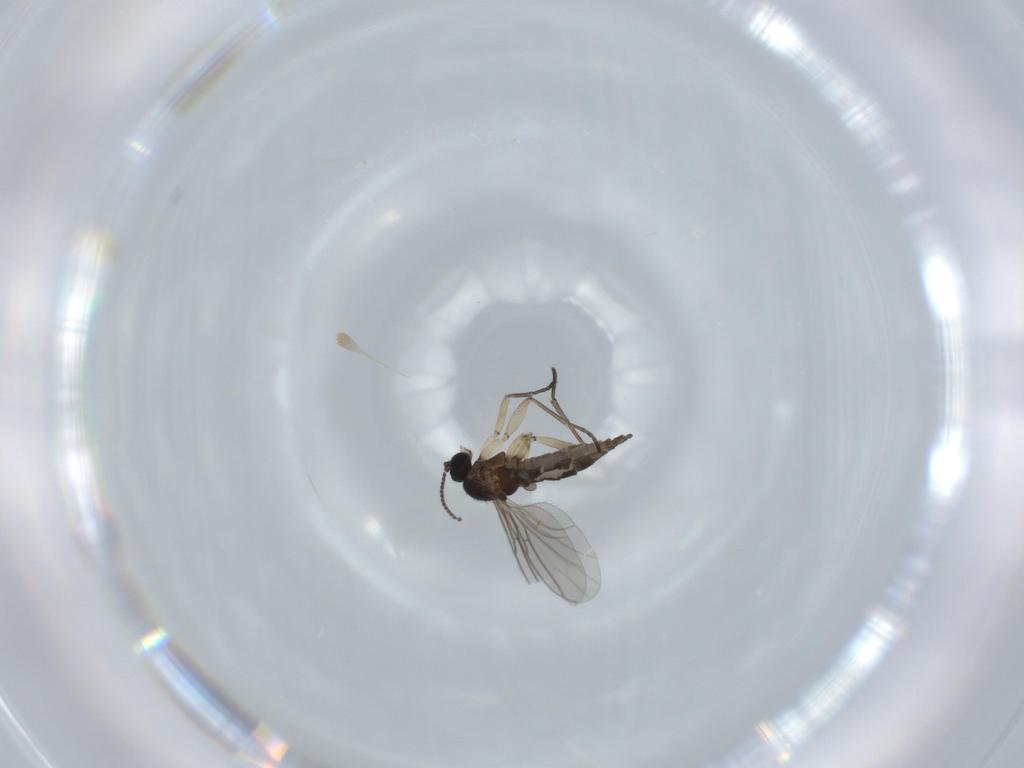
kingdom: Animalia
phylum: Arthropoda
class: Insecta
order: Diptera
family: Sciaridae
